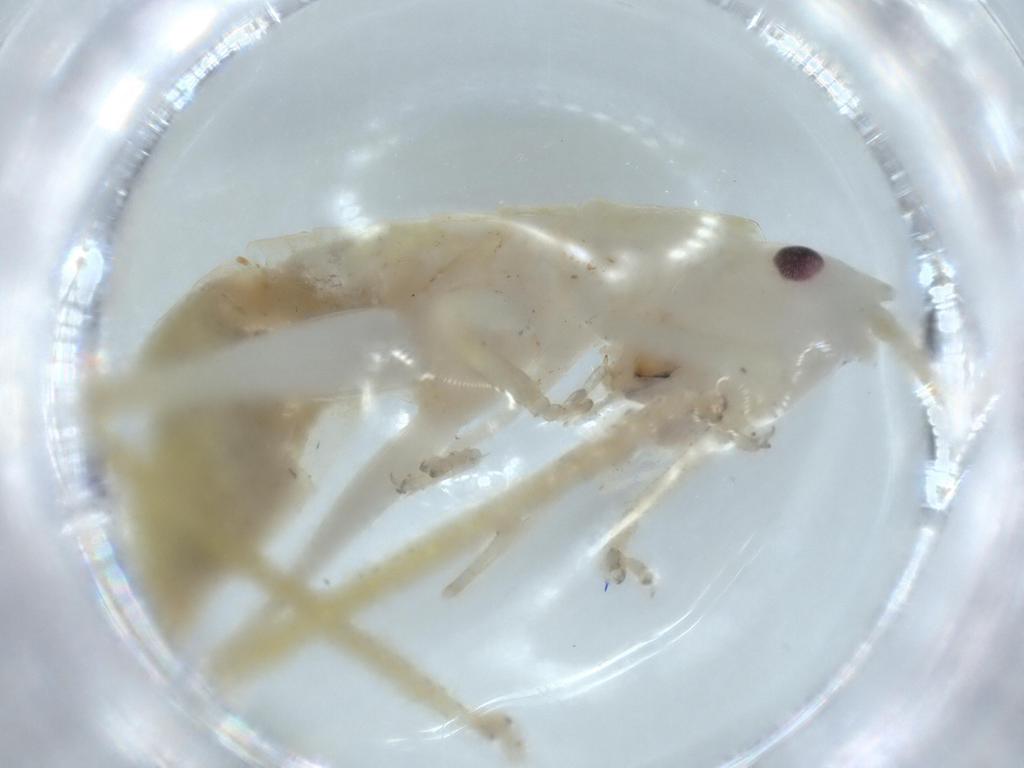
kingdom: Animalia
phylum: Arthropoda
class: Insecta
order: Orthoptera
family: Tettigoniidae
